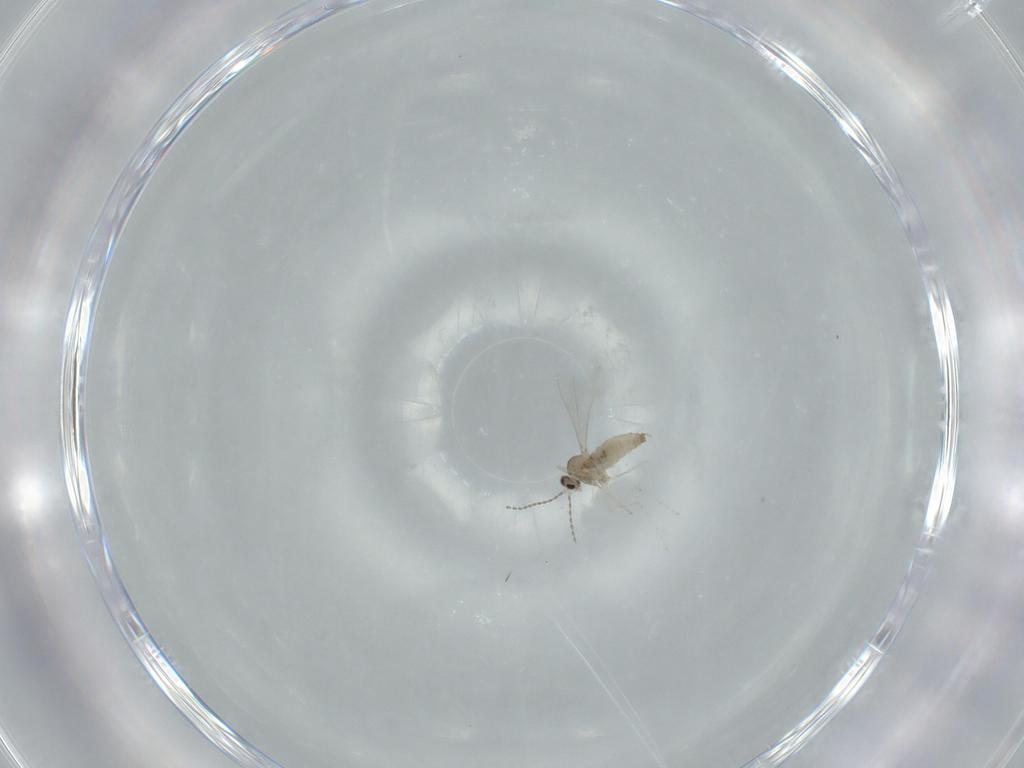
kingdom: Animalia
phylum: Arthropoda
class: Insecta
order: Diptera
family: Cecidomyiidae
